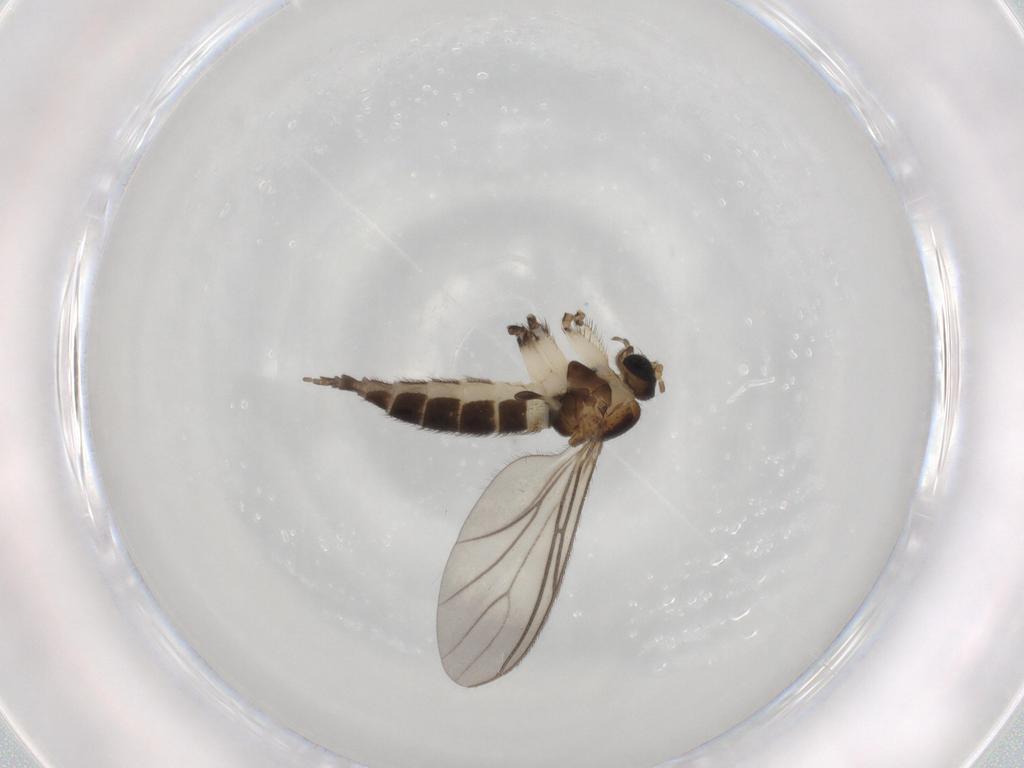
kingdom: Animalia
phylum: Arthropoda
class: Insecta
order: Diptera
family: Sciaridae
